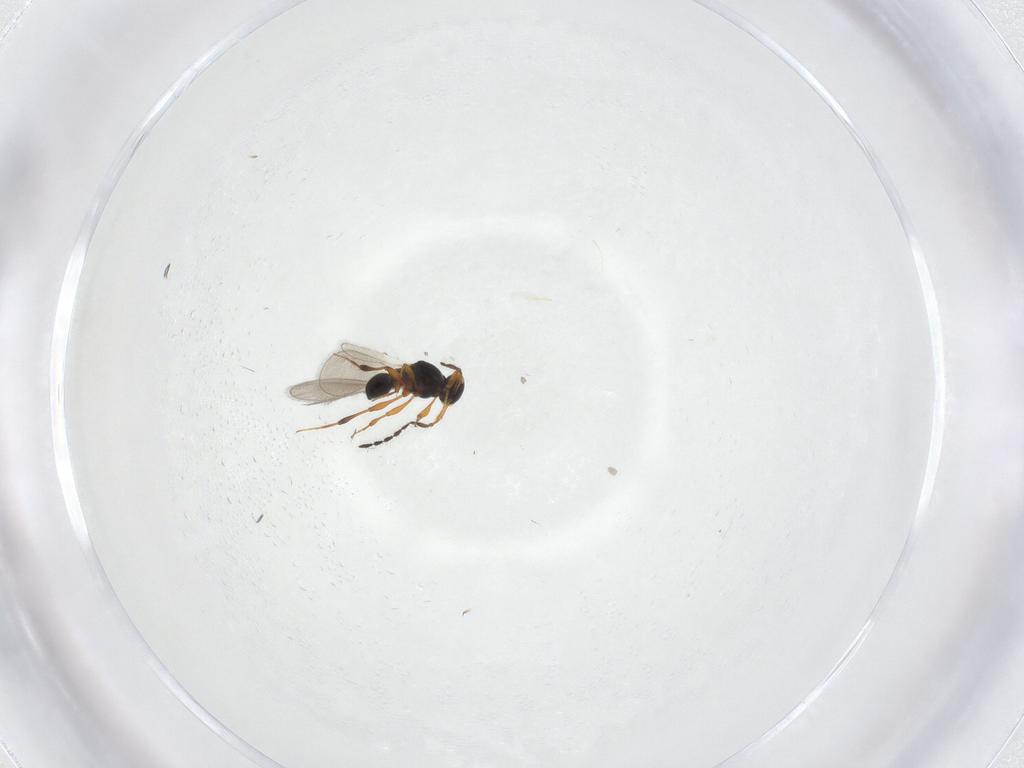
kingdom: Animalia
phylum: Arthropoda
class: Insecta
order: Hymenoptera
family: Platygastridae
